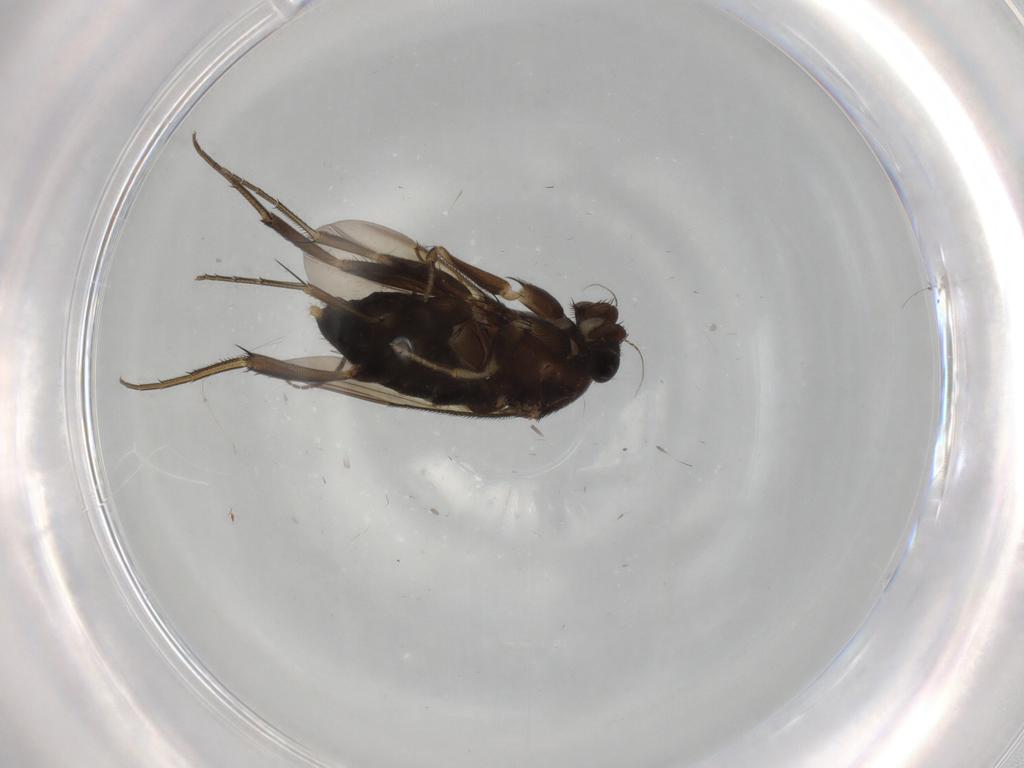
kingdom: Animalia
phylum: Arthropoda
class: Insecta
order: Diptera
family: Phoridae
